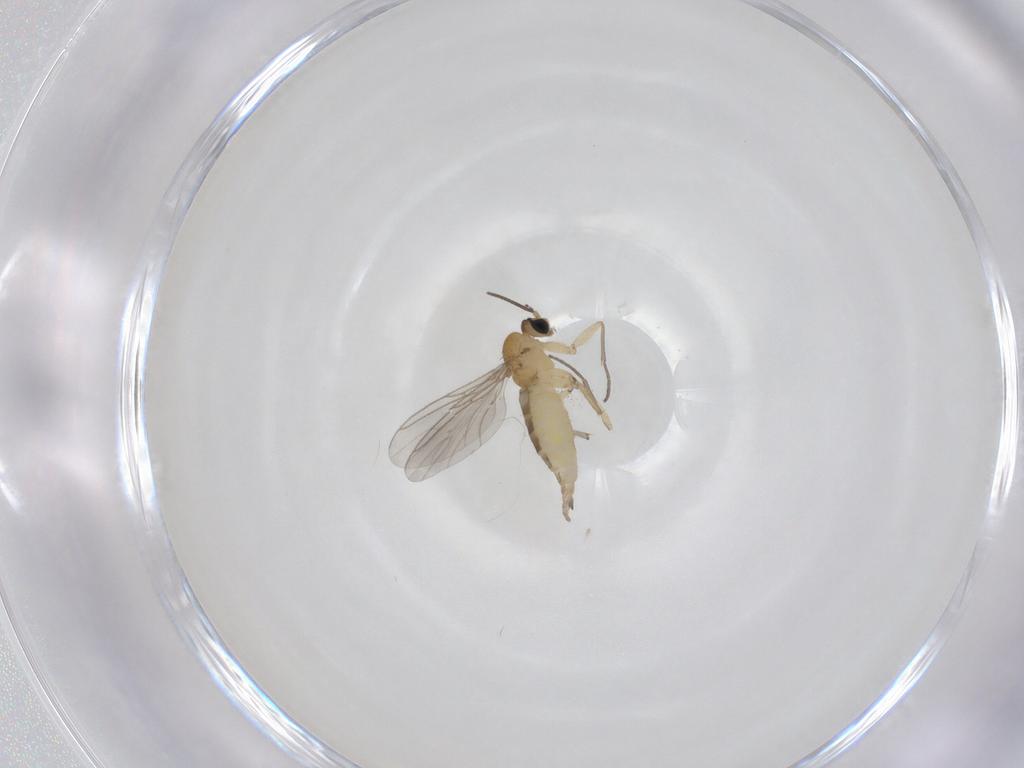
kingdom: Animalia
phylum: Arthropoda
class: Insecta
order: Diptera
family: Sciaridae
